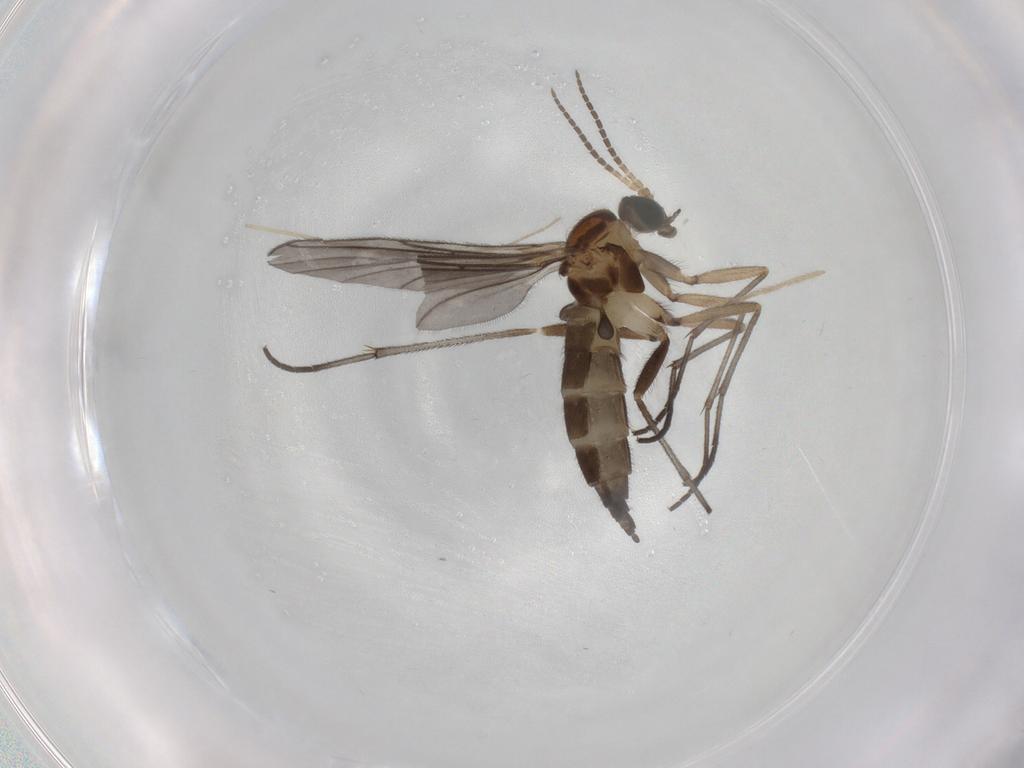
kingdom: Animalia
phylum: Arthropoda
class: Insecta
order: Diptera
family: Sciaridae
